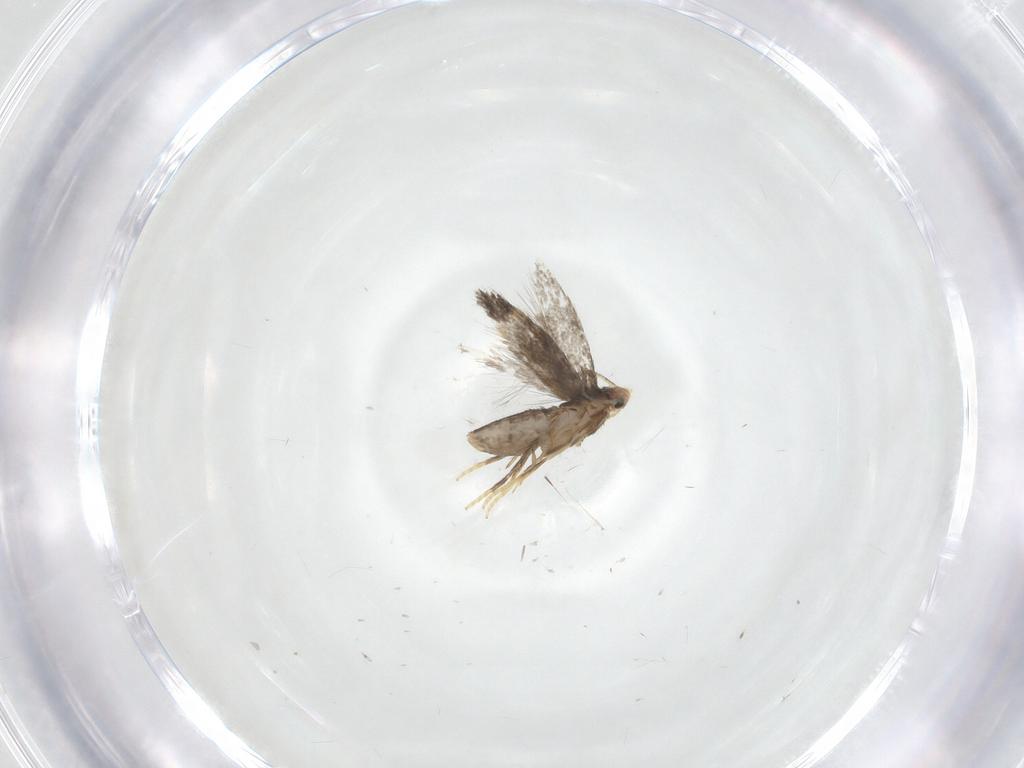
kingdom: Animalia
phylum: Arthropoda
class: Insecta
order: Lepidoptera
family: Nepticulidae
